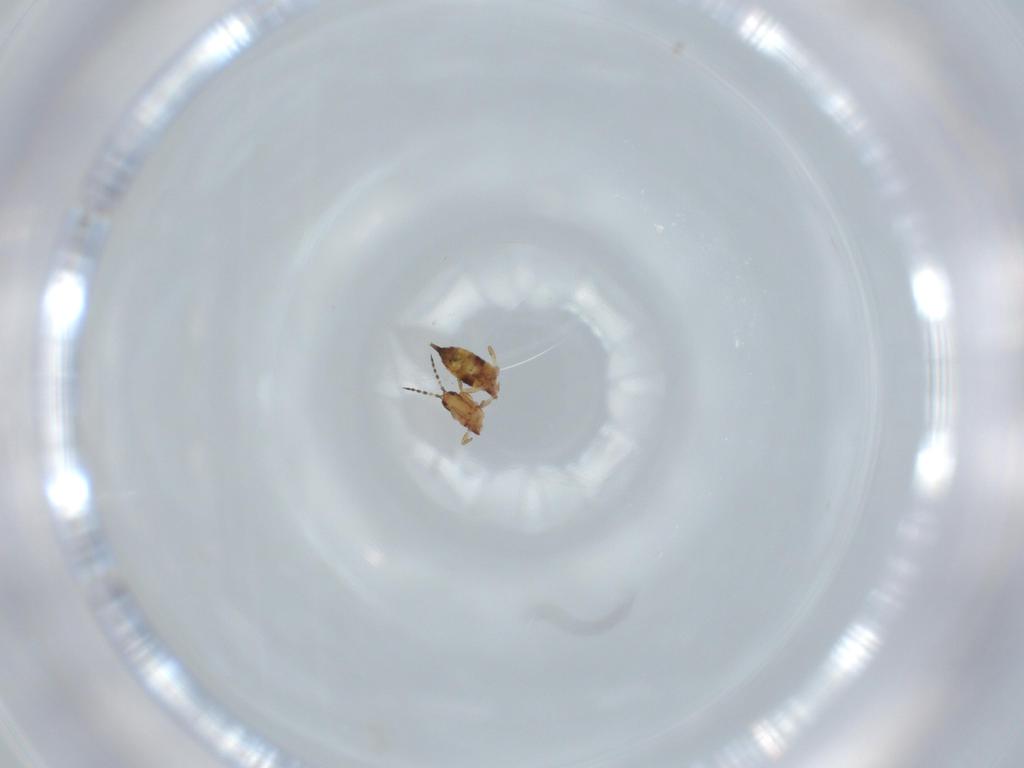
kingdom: Animalia
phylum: Arthropoda
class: Insecta
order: Thysanoptera
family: Phlaeothripidae
